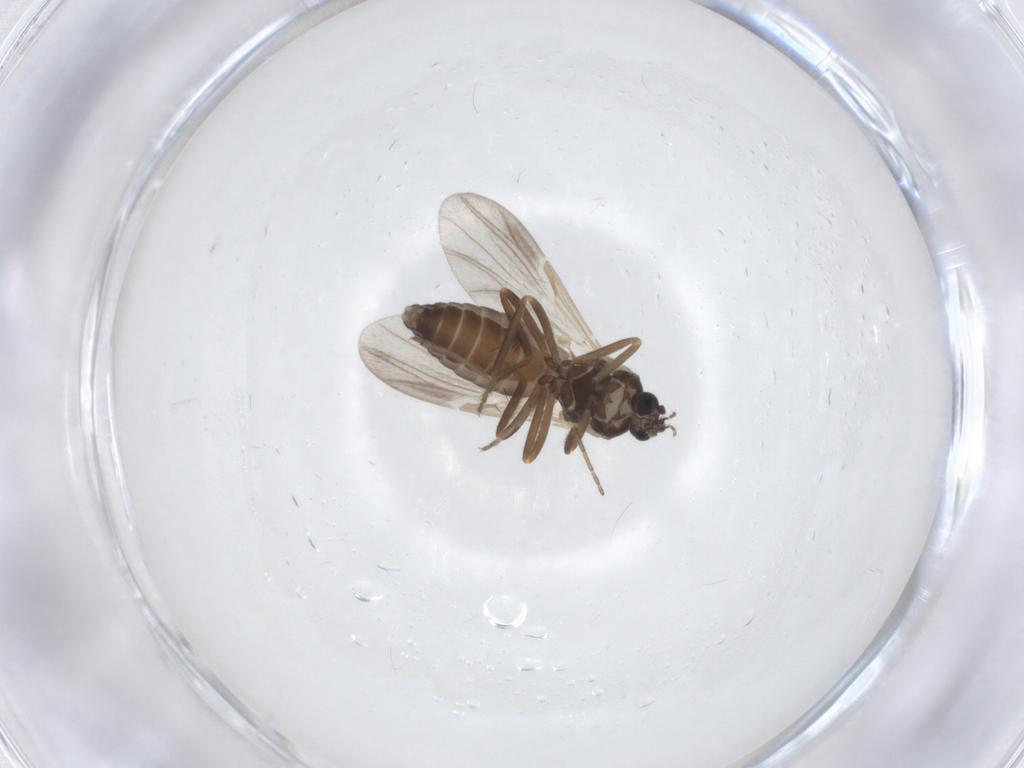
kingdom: Animalia
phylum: Arthropoda
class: Insecta
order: Diptera
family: Ceratopogonidae
